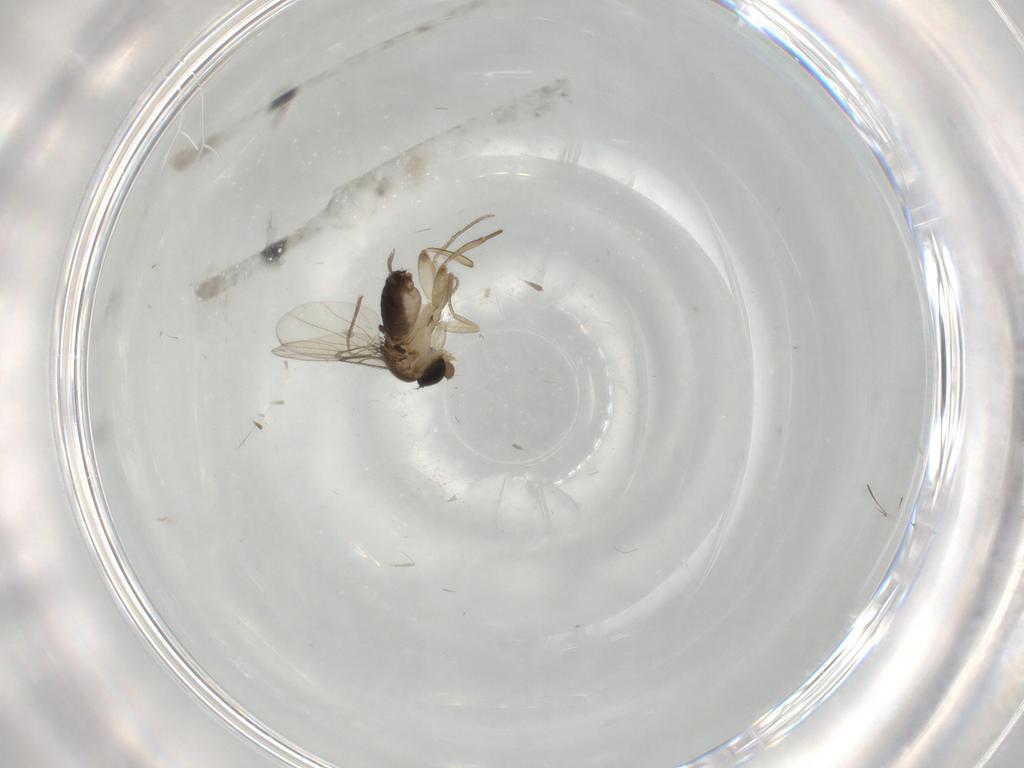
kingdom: Animalia
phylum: Arthropoda
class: Insecta
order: Diptera
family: Phoridae
